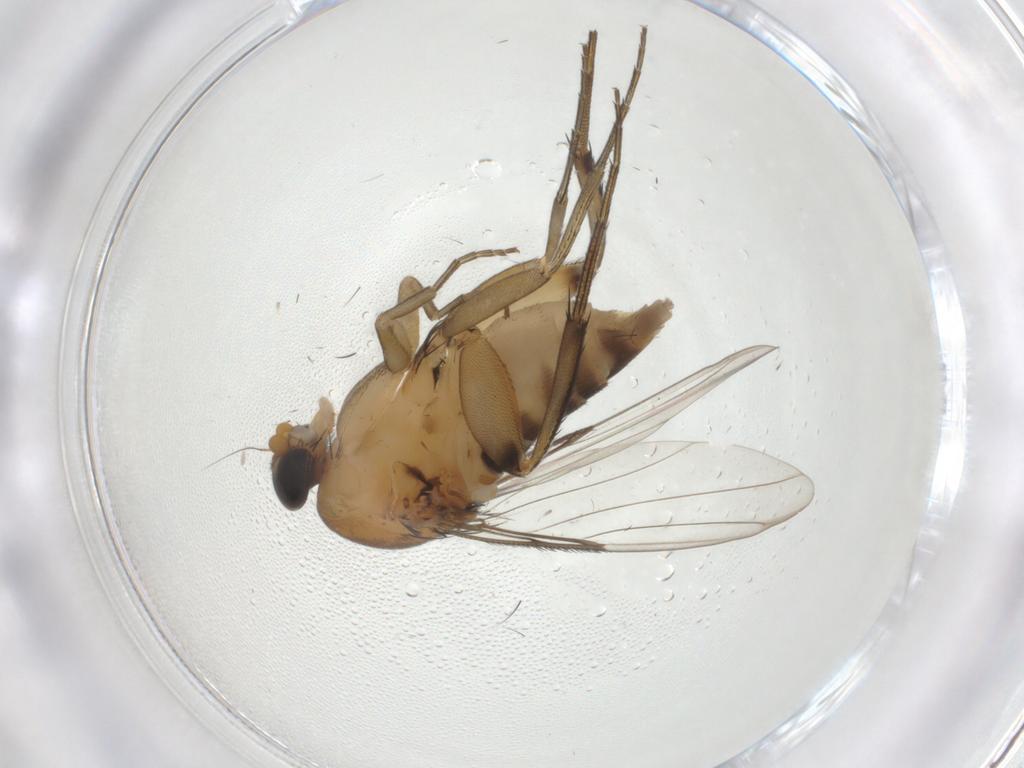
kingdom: Animalia
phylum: Arthropoda
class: Insecta
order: Diptera
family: Phoridae
